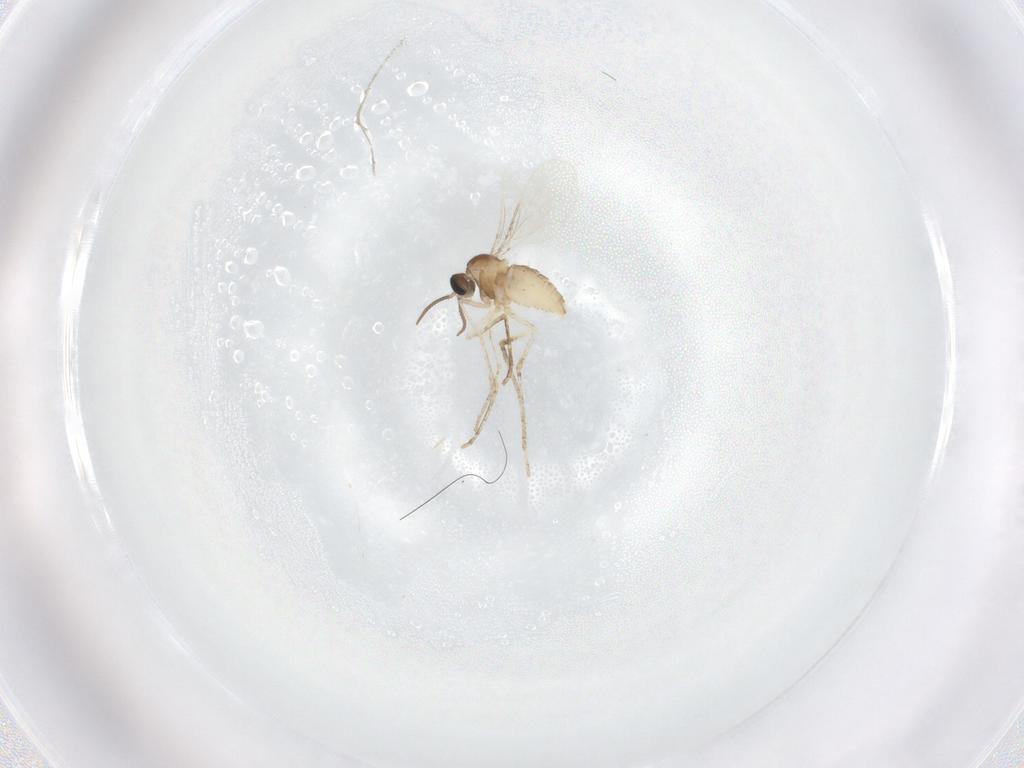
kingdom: Animalia
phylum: Arthropoda
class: Insecta
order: Diptera
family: Cecidomyiidae
